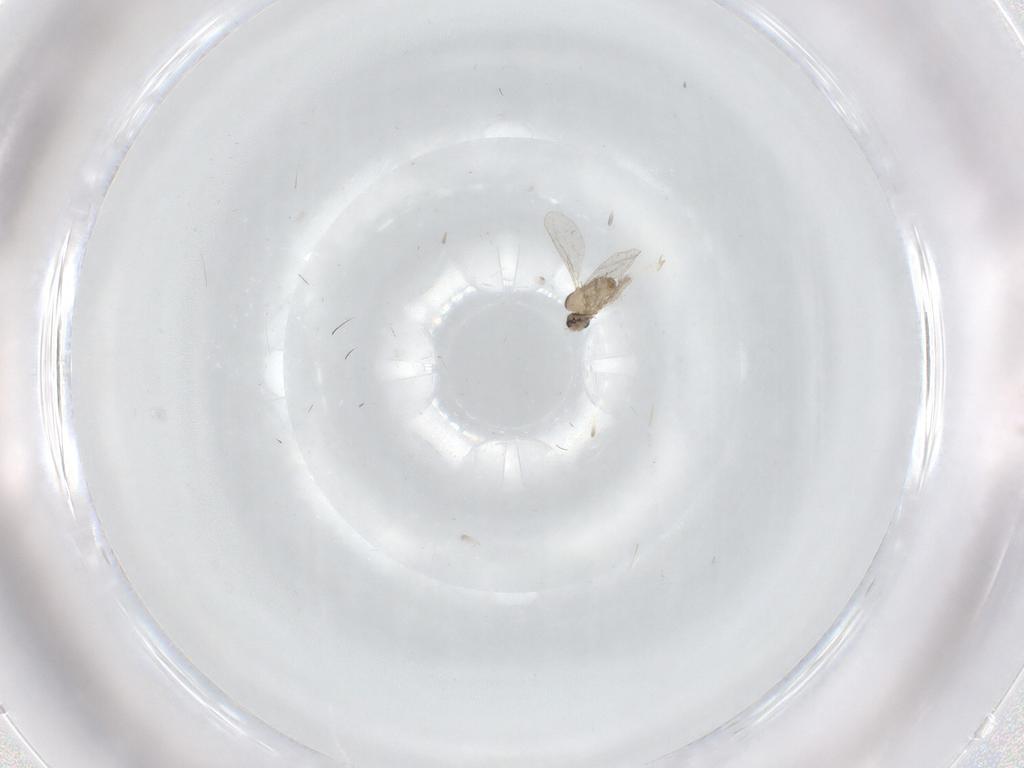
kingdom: Animalia
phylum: Arthropoda
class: Insecta
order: Diptera
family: Cecidomyiidae
